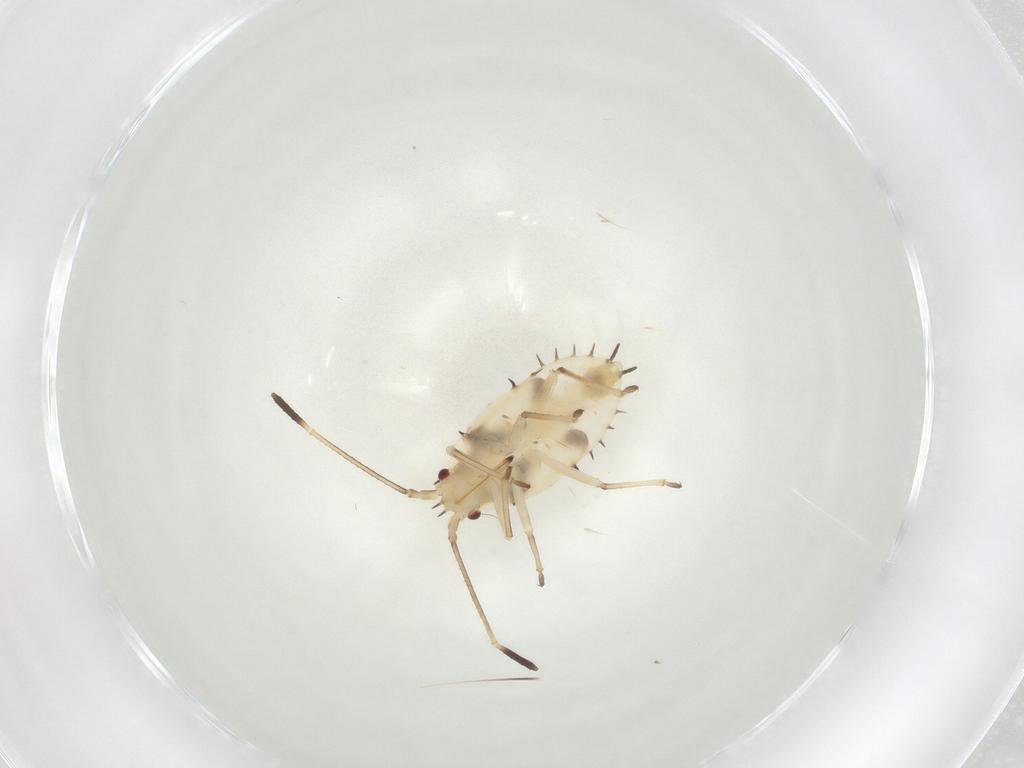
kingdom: Animalia
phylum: Arthropoda
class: Insecta
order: Hemiptera
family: Tingidae
